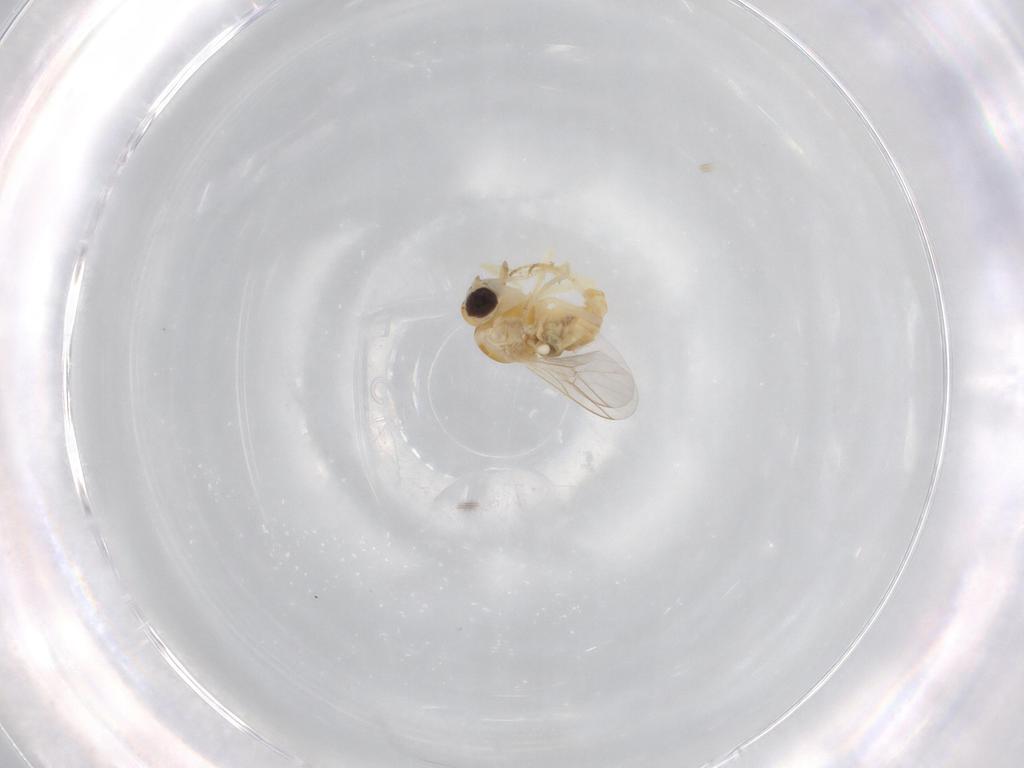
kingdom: Animalia
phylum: Arthropoda
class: Insecta
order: Diptera
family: Mythicomyiidae
